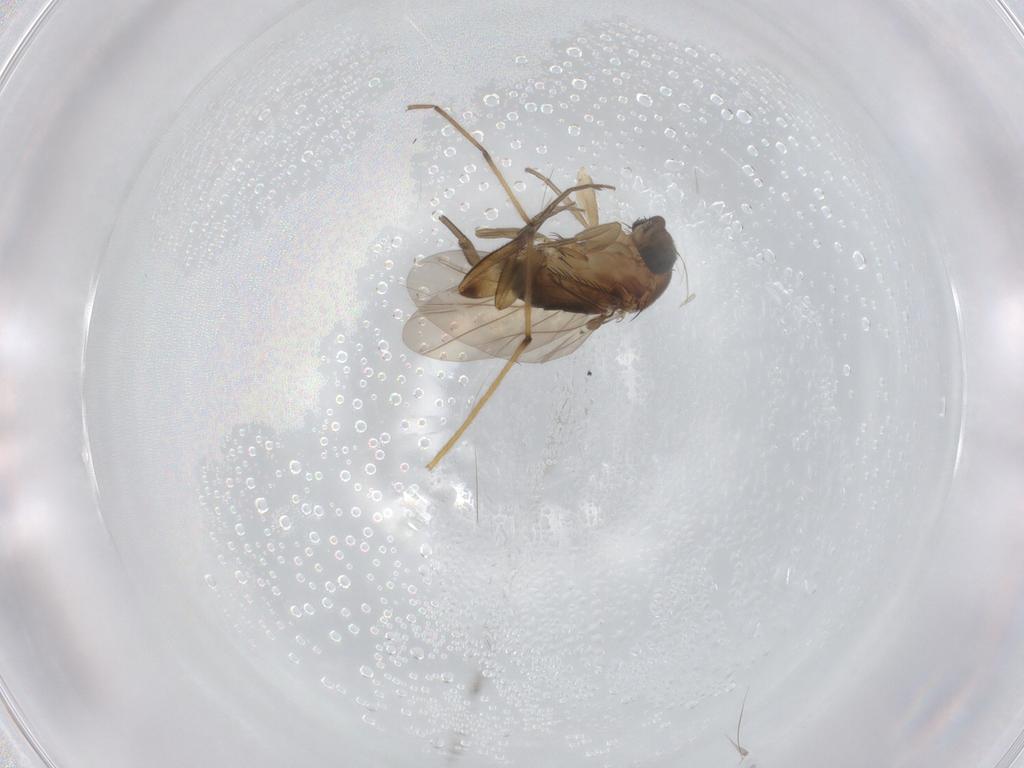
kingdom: Animalia
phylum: Arthropoda
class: Insecta
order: Diptera
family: Phoridae
